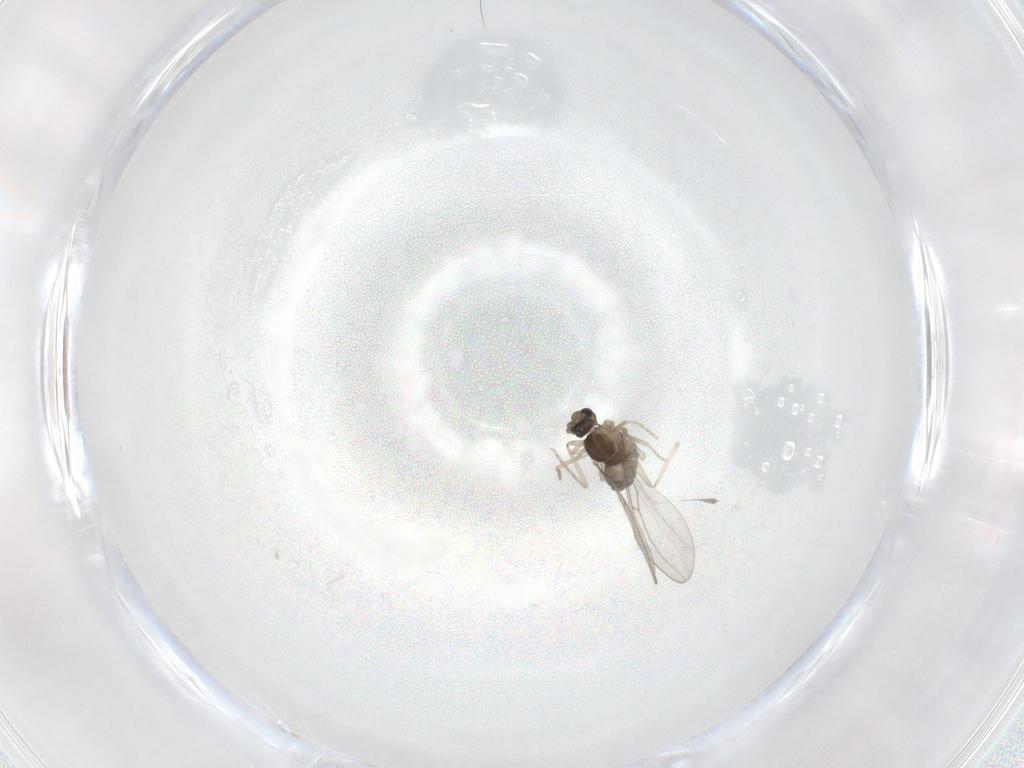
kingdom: Animalia
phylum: Arthropoda
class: Insecta
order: Diptera
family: Cecidomyiidae
